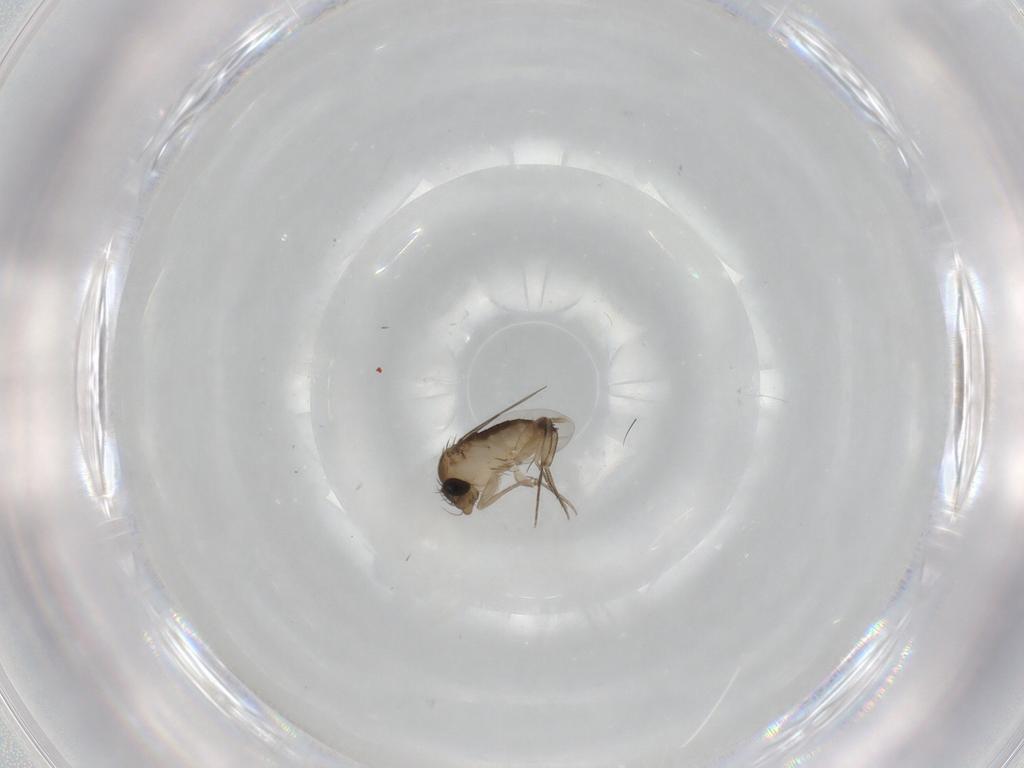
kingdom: Animalia
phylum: Arthropoda
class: Insecta
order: Diptera
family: Phoridae
